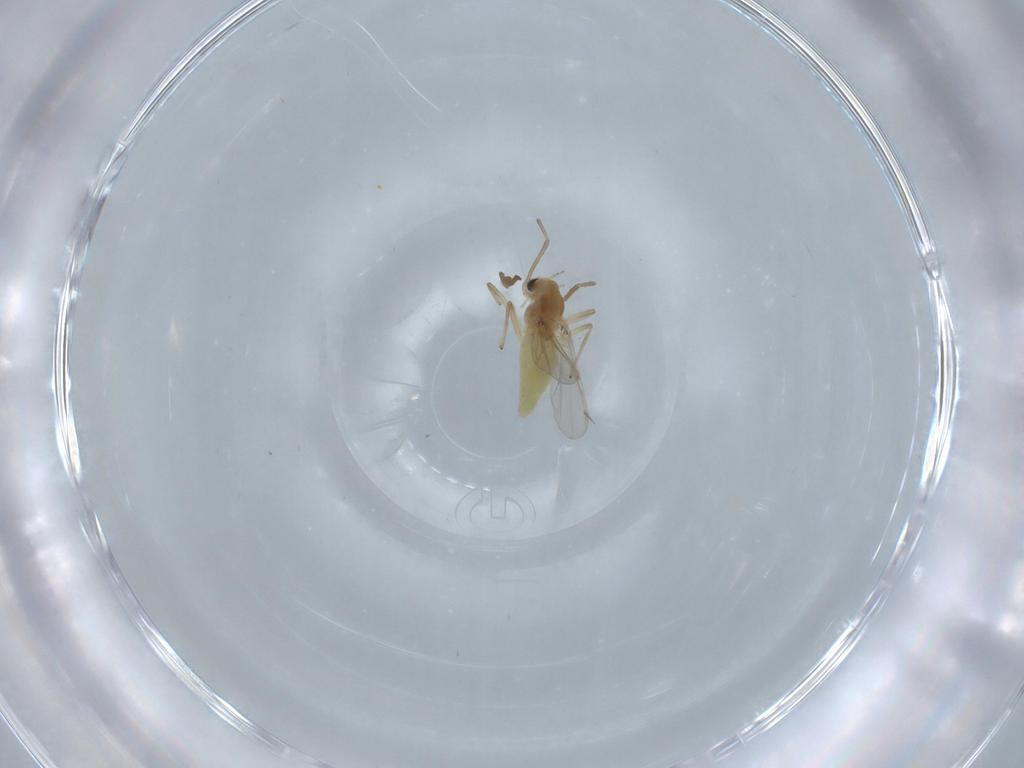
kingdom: Animalia
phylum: Arthropoda
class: Insecta
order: Diptera
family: Chironomidae
